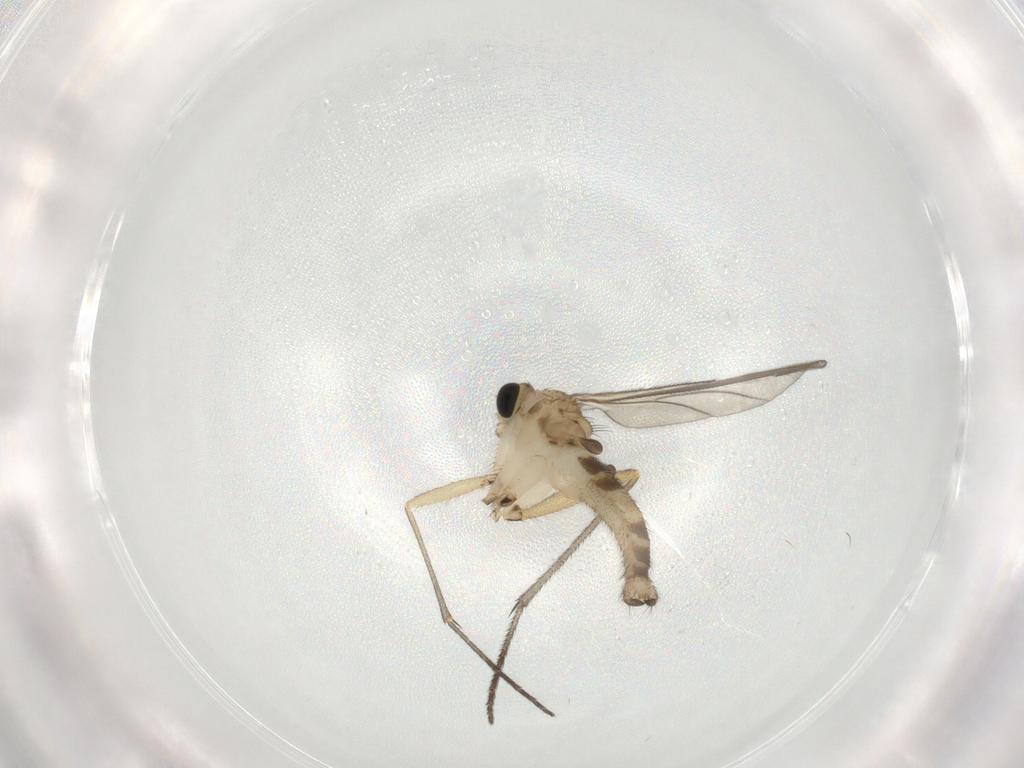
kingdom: Animalia
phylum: Arthropoda
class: Insecta
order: Diptera
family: Sciaridae
